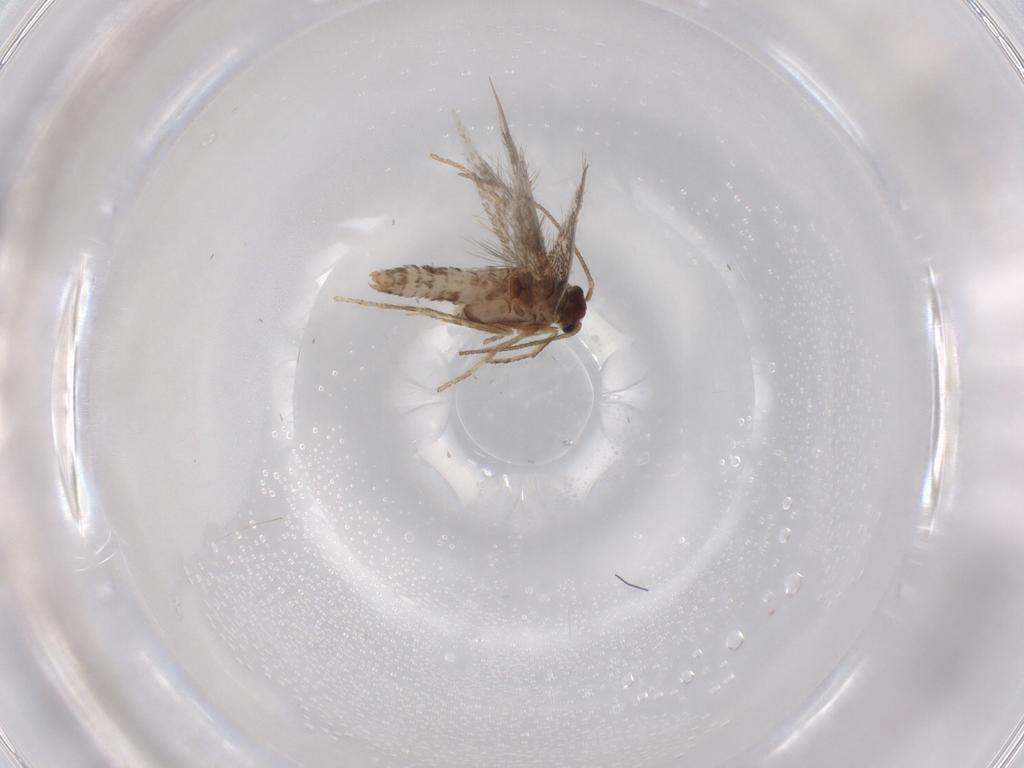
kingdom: Animalia
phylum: Arthropoda
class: Insecta
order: Lepidoptera
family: Nepticulidae
